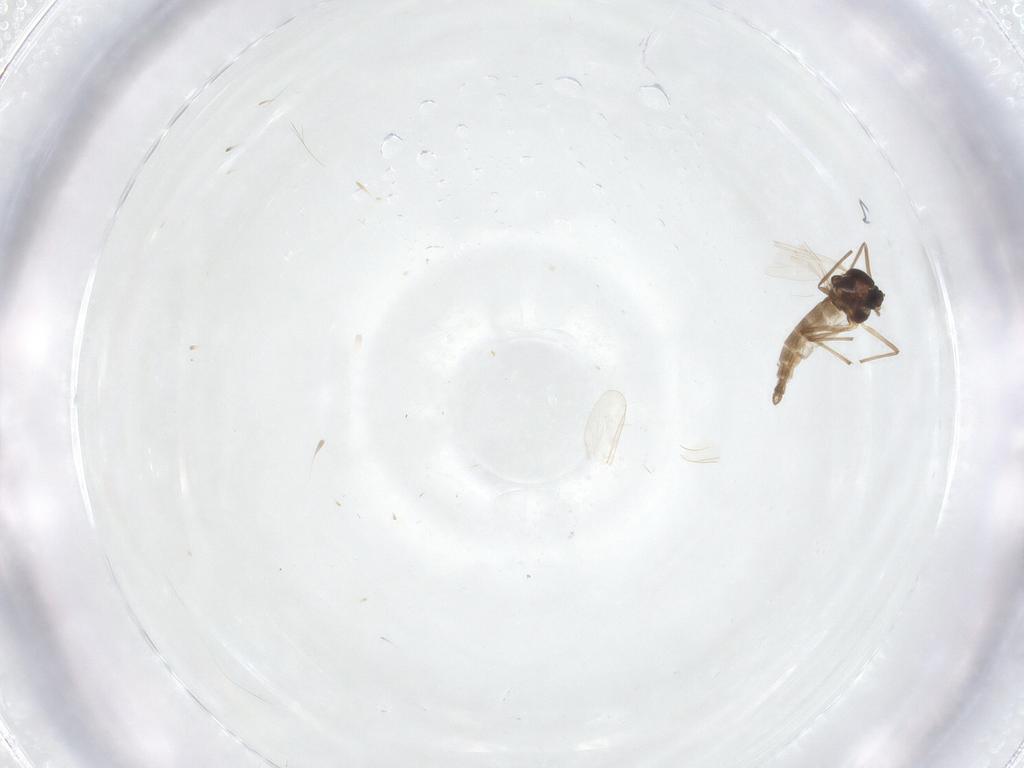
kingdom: Animalia
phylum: Arthropoda
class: Insecta
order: Diptera
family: Chironomidae
